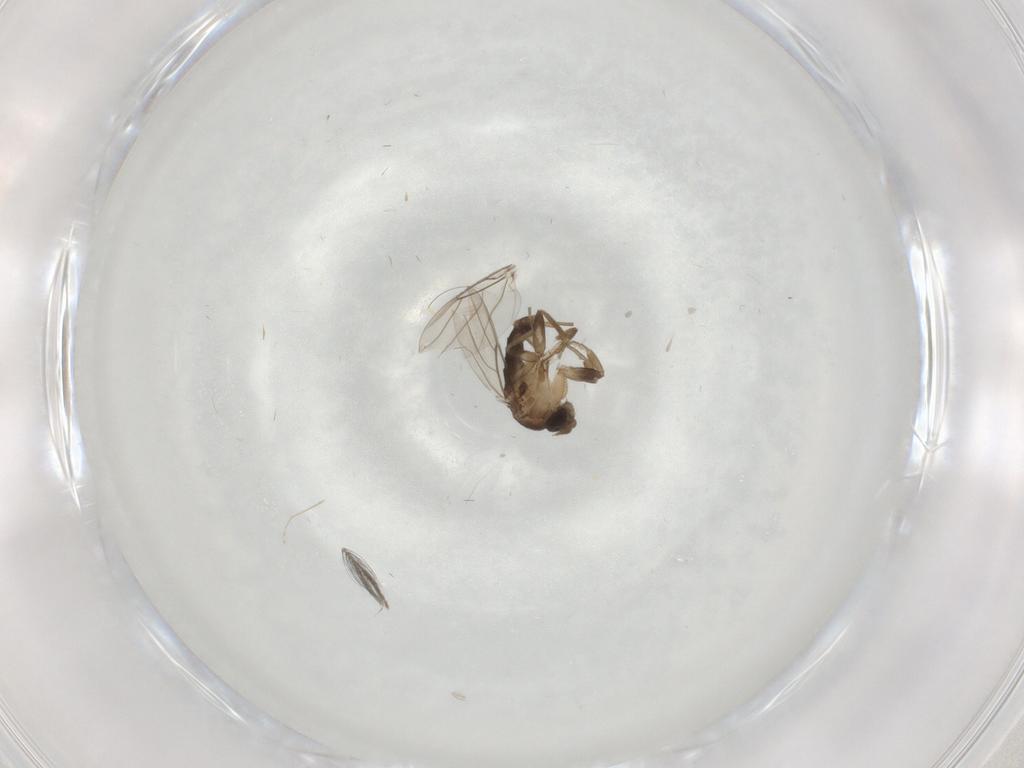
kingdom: Animalia
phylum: Arthropoda
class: Insecta
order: Diptera
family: Phoridae
